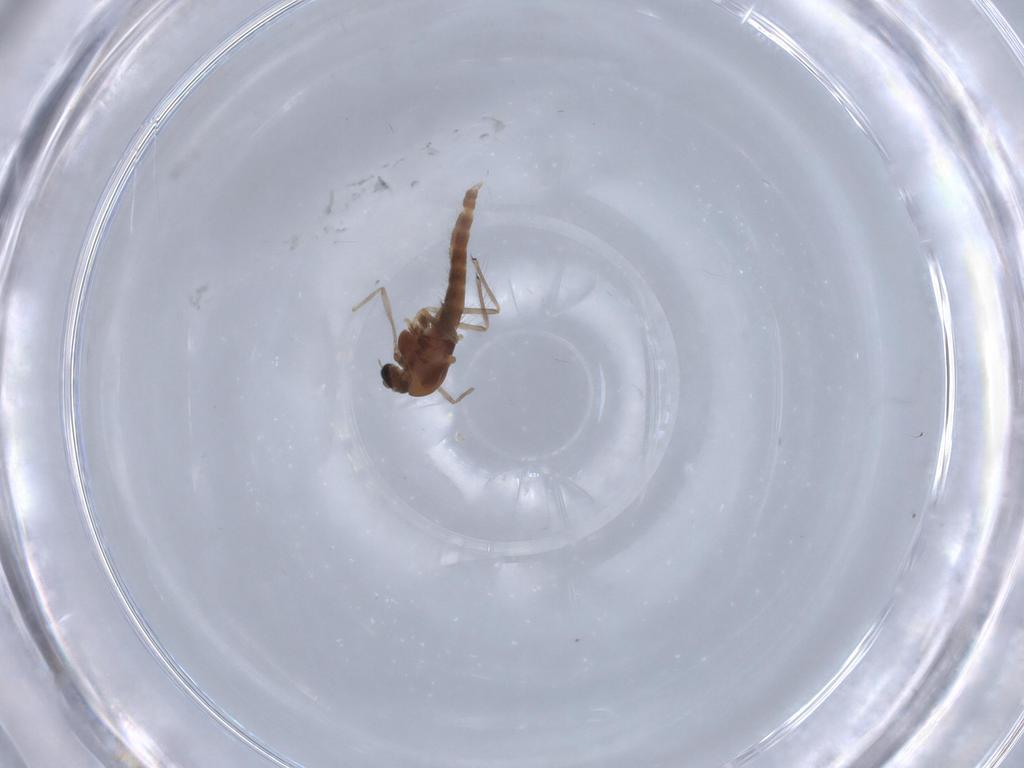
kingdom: Animalia
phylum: Arthropoda
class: Insecta
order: Diptera
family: Chironomidae
